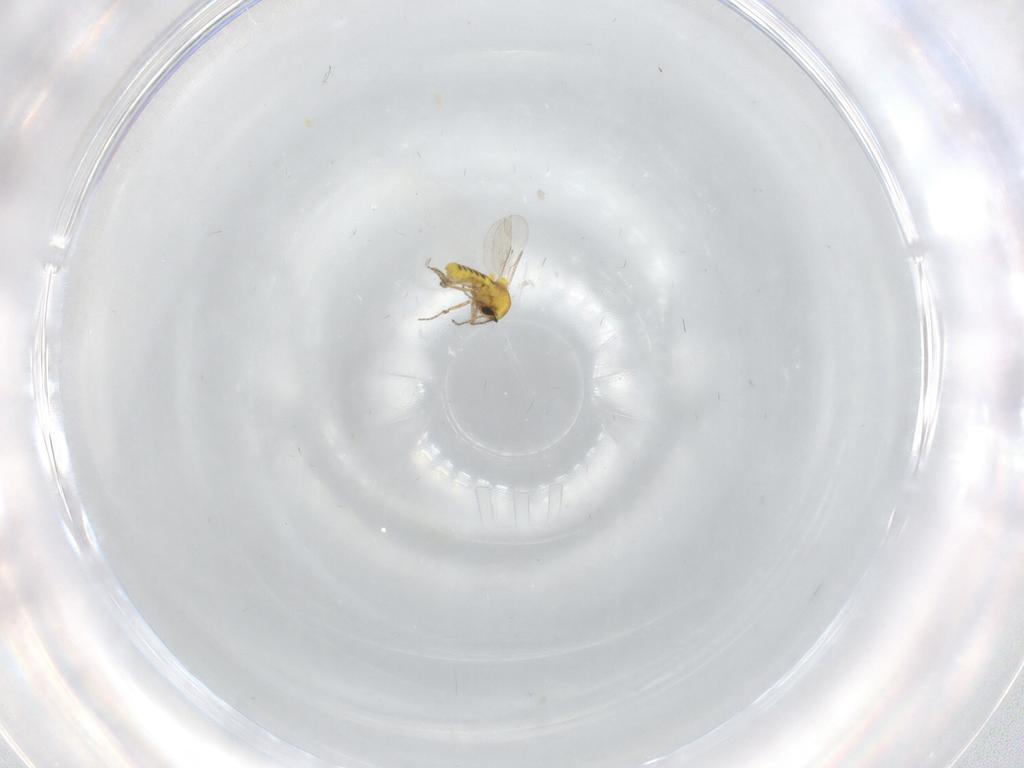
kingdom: Animalia
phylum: Arthropoda
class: Insecta
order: Diptera
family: Ceratopogonidae
